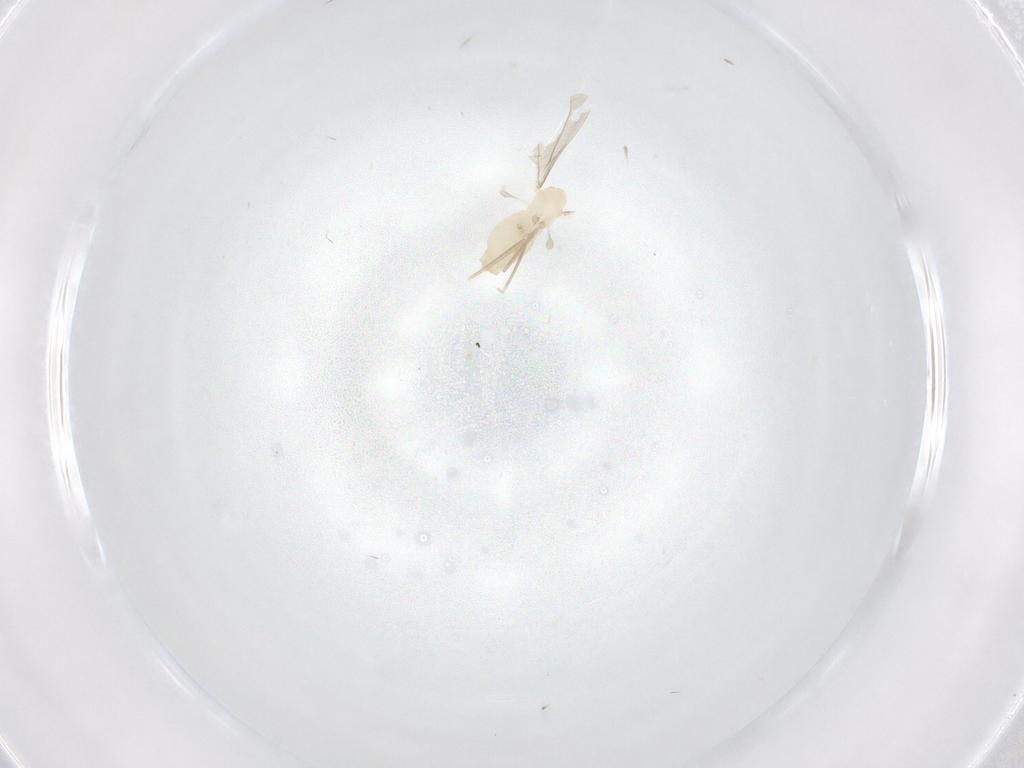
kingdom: Animalia
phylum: Arthropoda
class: Insecta
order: Diptera
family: Cecidomyiidae
